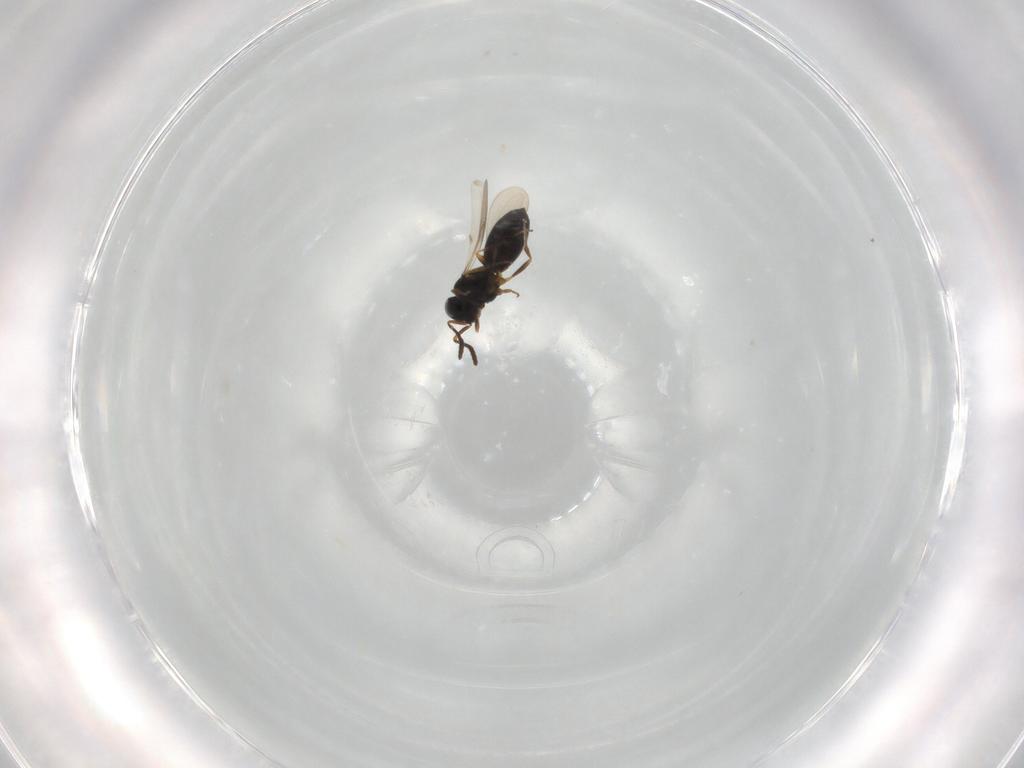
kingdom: Animalia
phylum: Arthropoda
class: Insecta
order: Hymenoptera
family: Scelionidae
